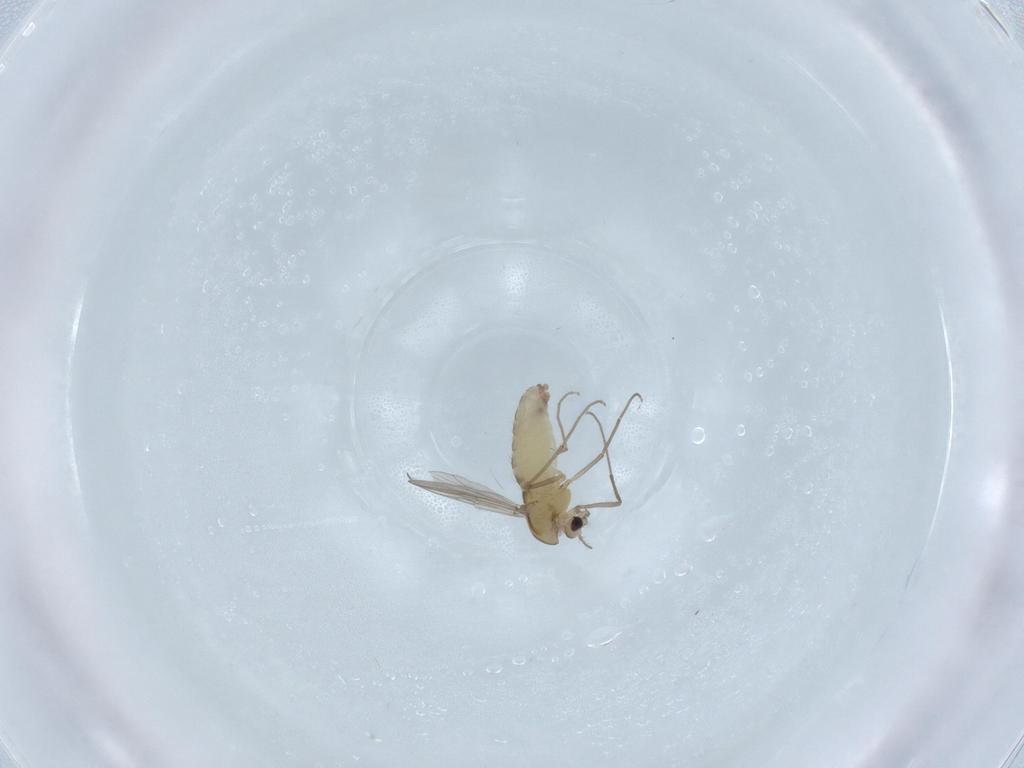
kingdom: Animalia
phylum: Arthropoda
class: Insecta
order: Diptera
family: Chironomidae
